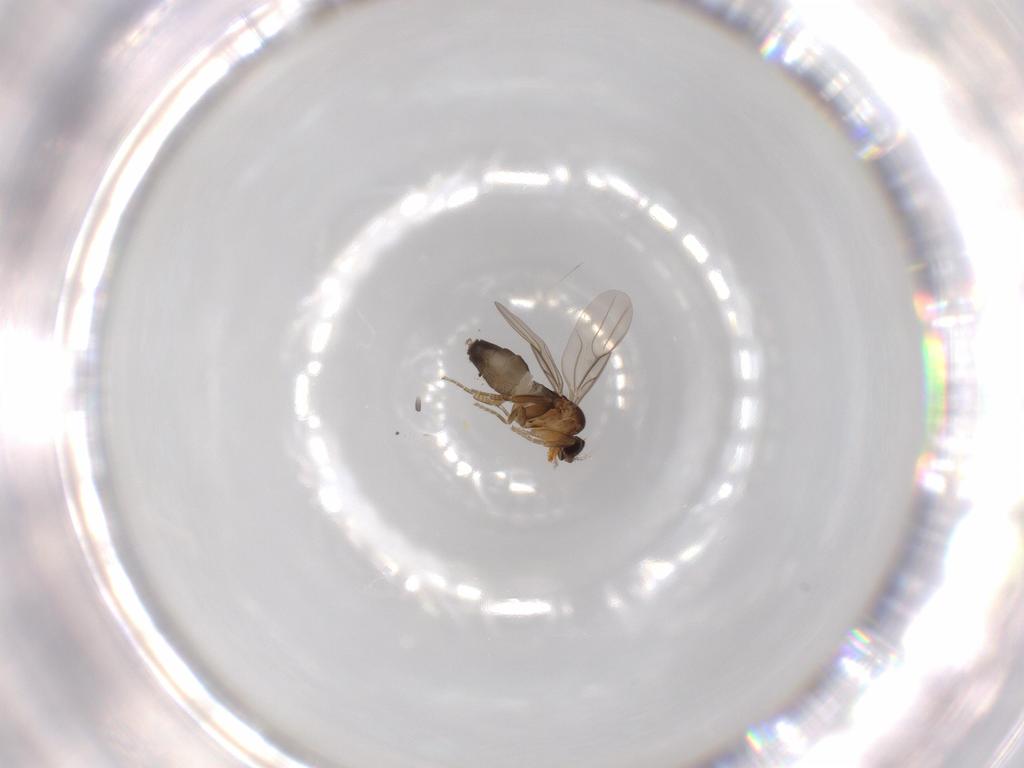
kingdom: Animalia
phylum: Arthropoda
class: Insecta
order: Diptera
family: Phoridae
